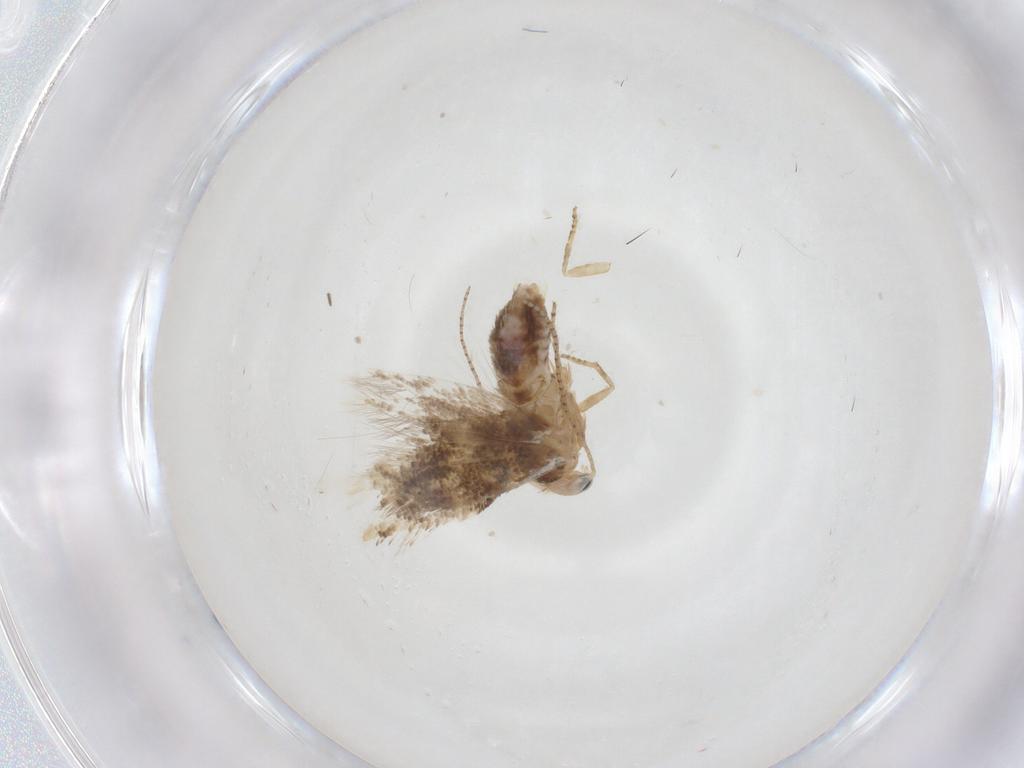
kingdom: Animalia
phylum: Arthropoda
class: Insecta
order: Lepidoptera
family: Bucculatricidae
